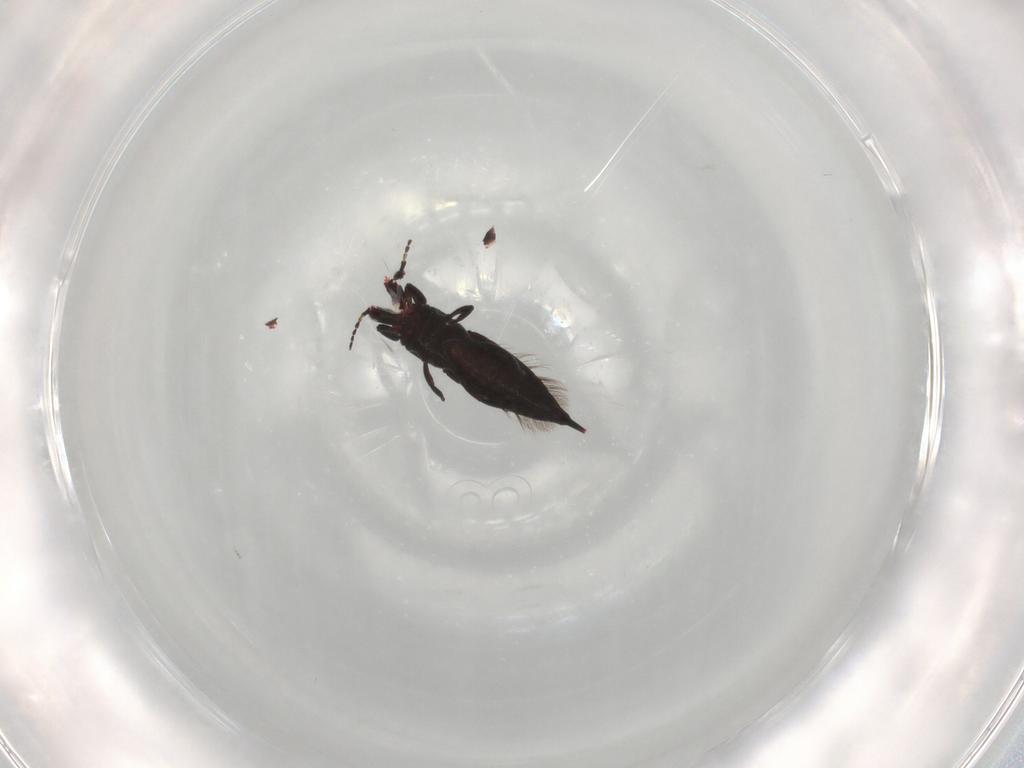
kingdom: Animalia
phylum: Arthropoda
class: Insecta
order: Thysanoptera
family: Phlaeothripidae
